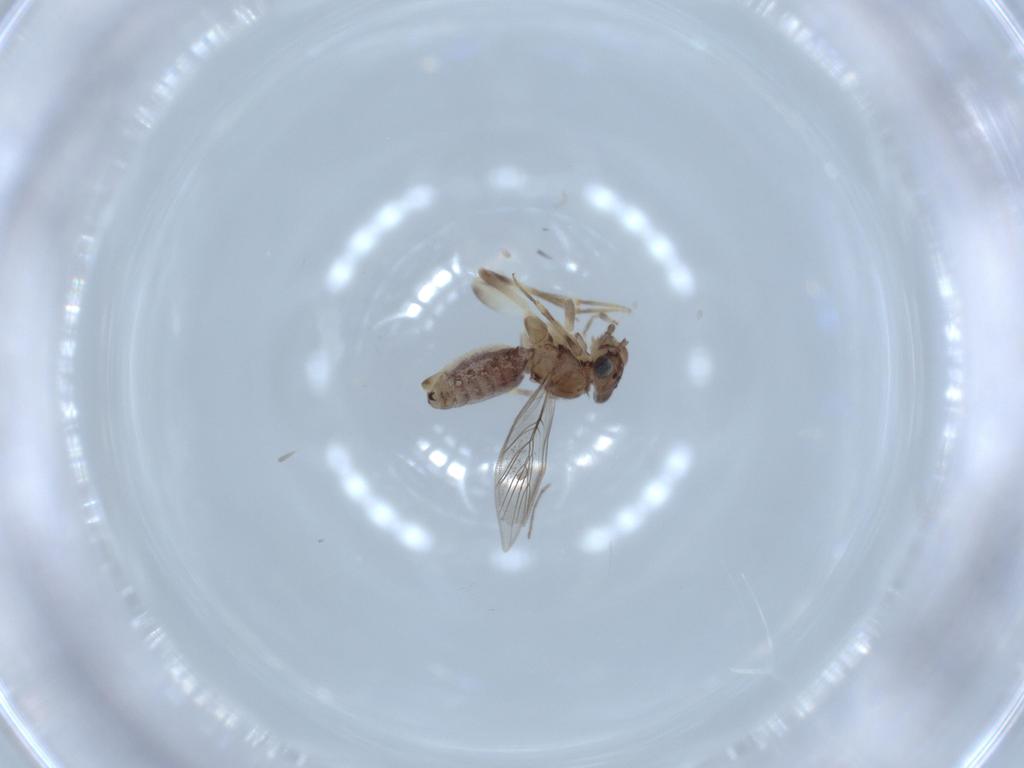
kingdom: Animalia
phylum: Arthropoda
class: Insecta
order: Psocodea
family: Lepidopsocidae
